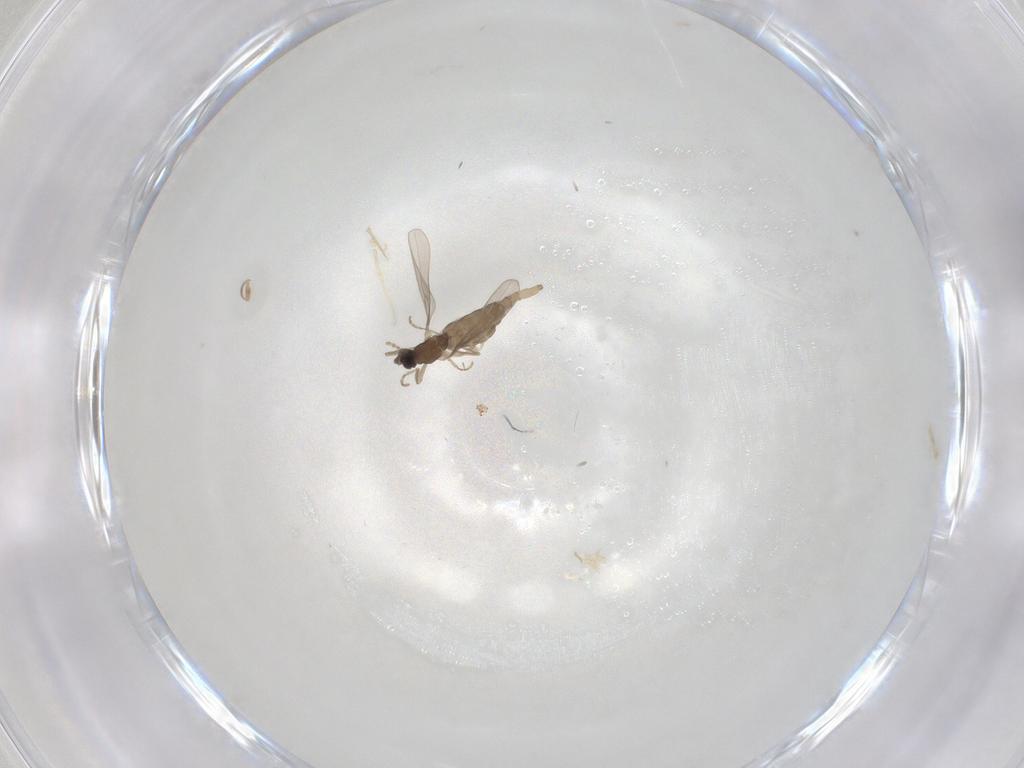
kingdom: Animalia
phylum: Arthropoda
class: Insecta
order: Diptera
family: Cecidomyiidae
